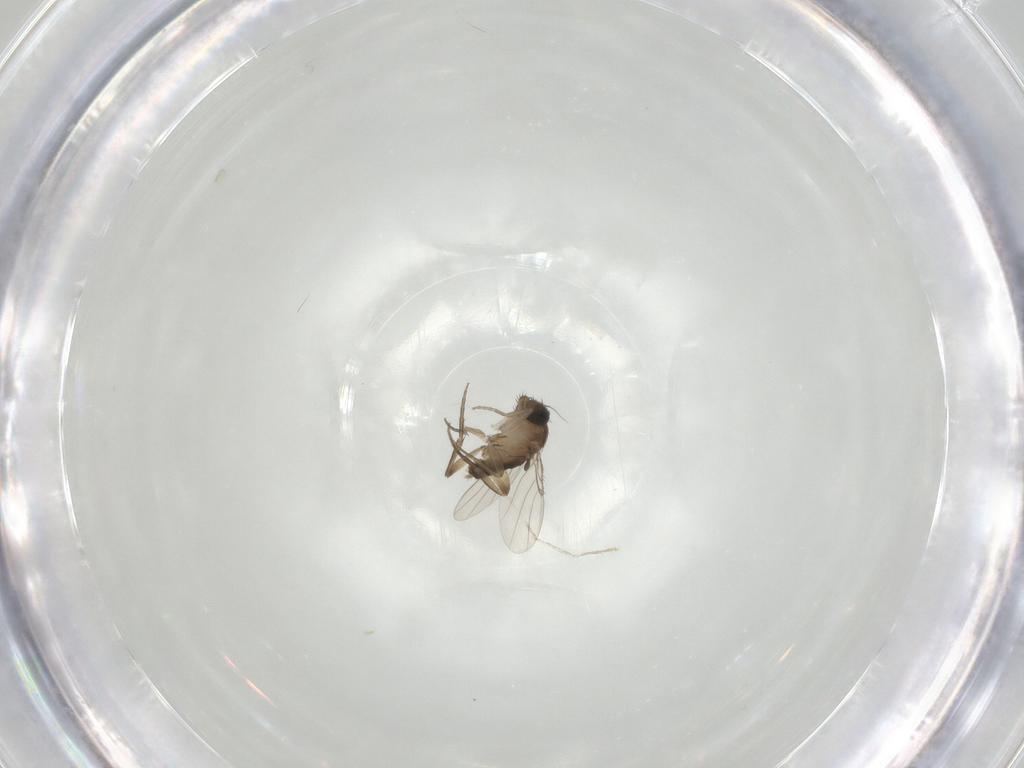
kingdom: Animalia
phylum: Arthropoda
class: Insecta
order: Diptera
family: Cecidomyiidae
